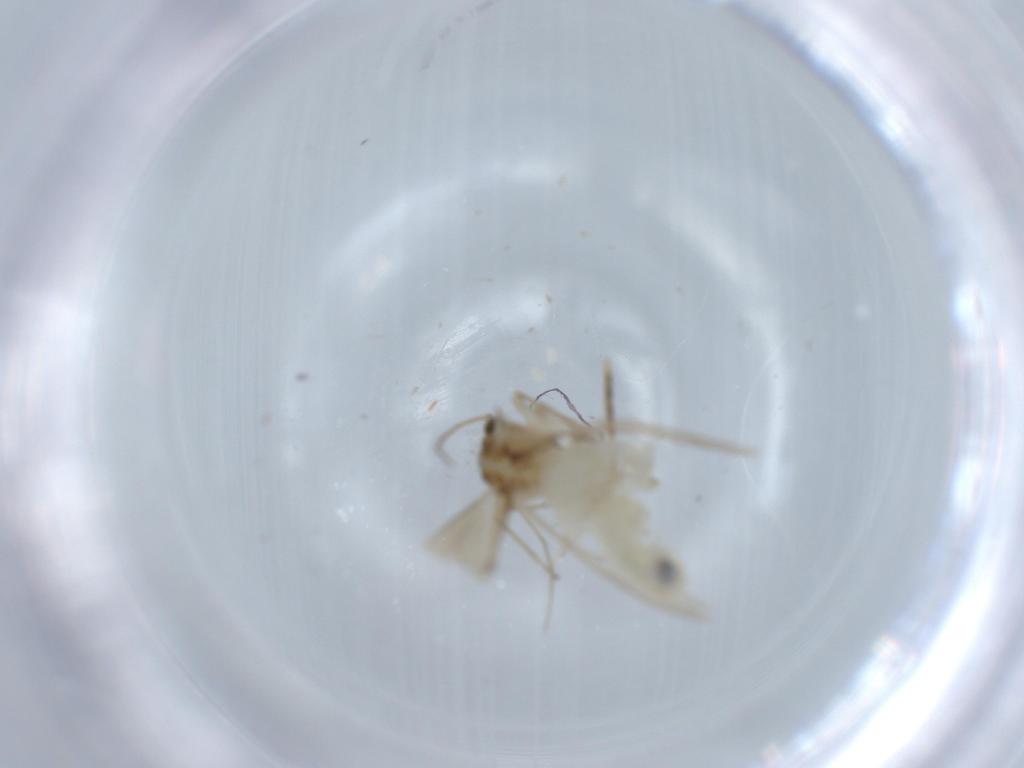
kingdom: Animalia
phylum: Arthropoda
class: Insecta
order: Psocodea
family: Caeciliusidae
